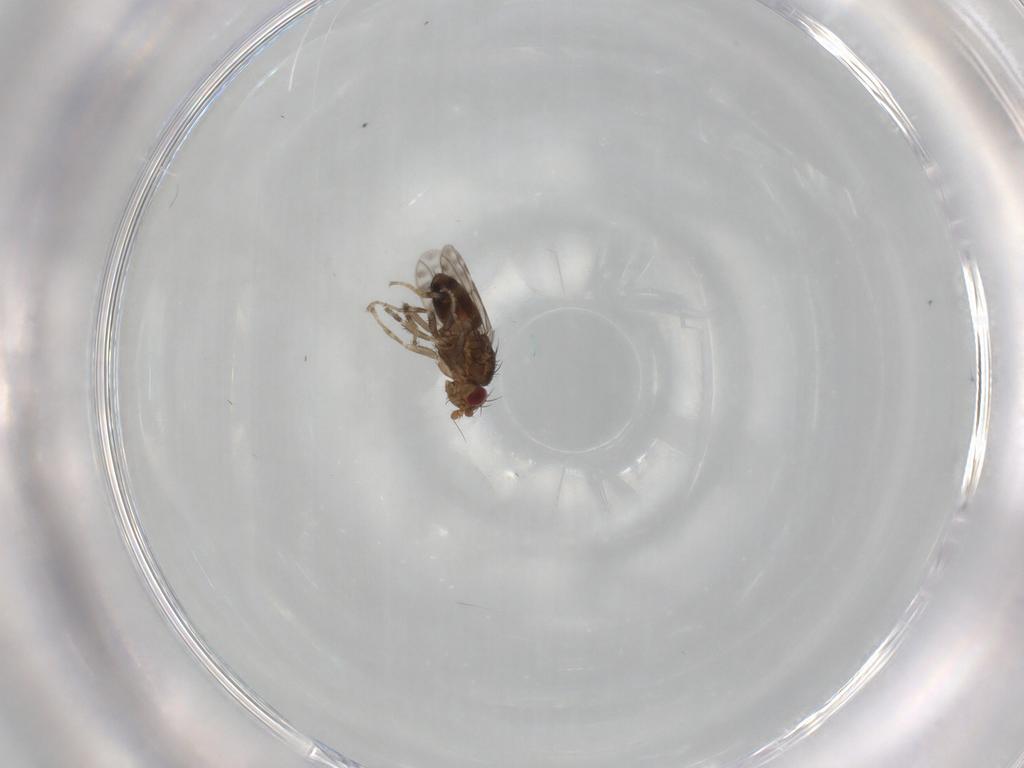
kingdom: Animalia
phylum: Arthropoda
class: Insecta
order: Diptera
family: Sphaeroceridae
